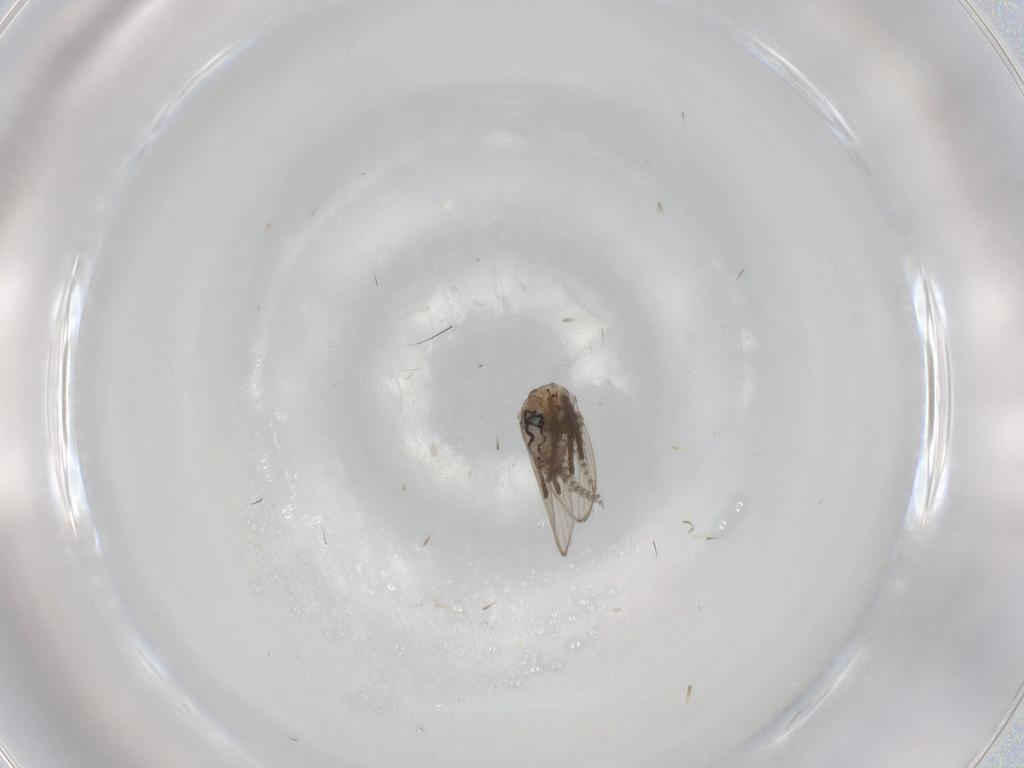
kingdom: Animalia
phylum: Arthropoda
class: Insecta
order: Diptera
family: Psychodidae
